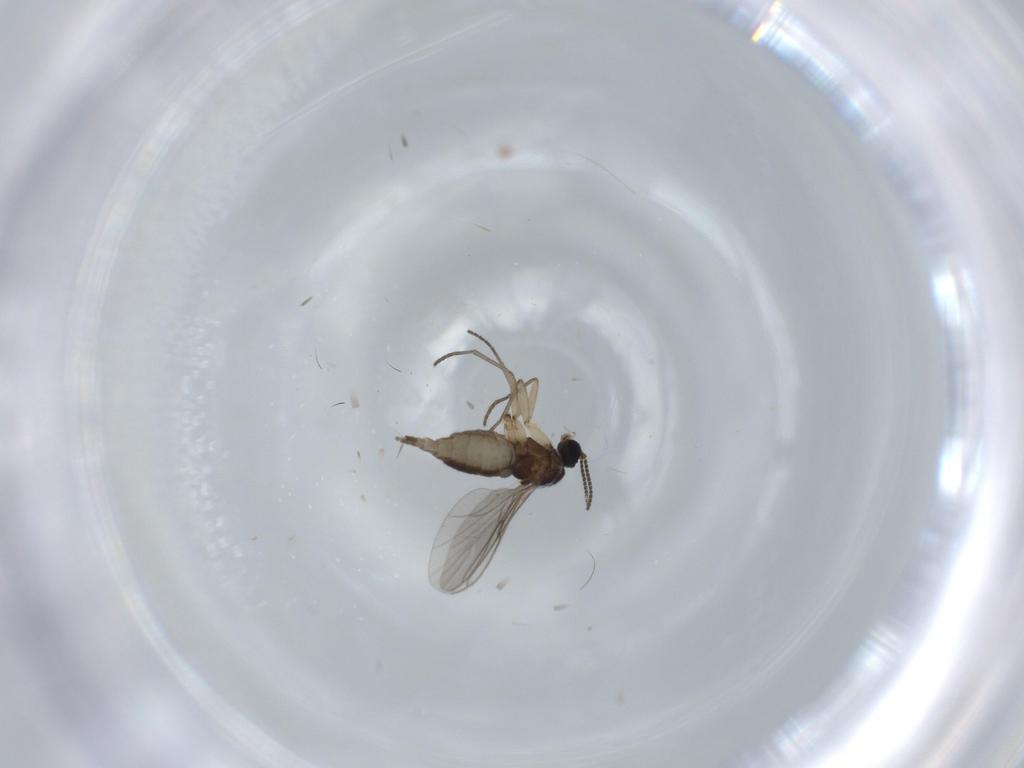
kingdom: Animalia
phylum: Arthropoda
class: Insecta
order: Diptera
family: Sciaridae
